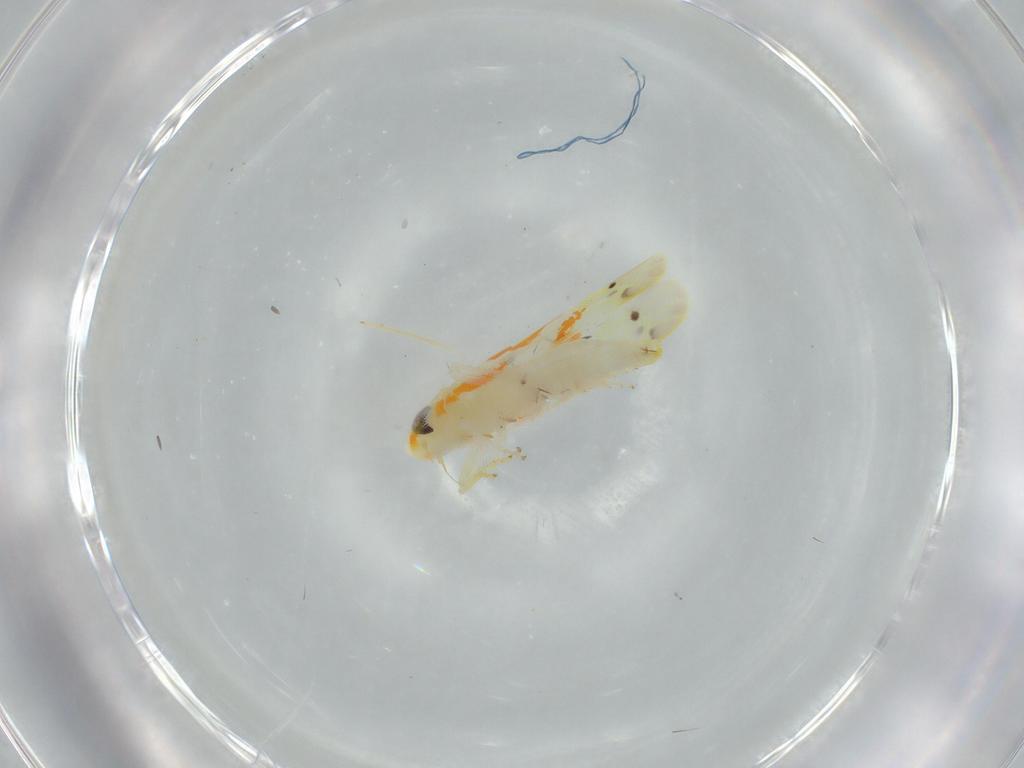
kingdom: Animalia
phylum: Arthropoda
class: Insecta
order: Hemiptera
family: Cicadellidae
